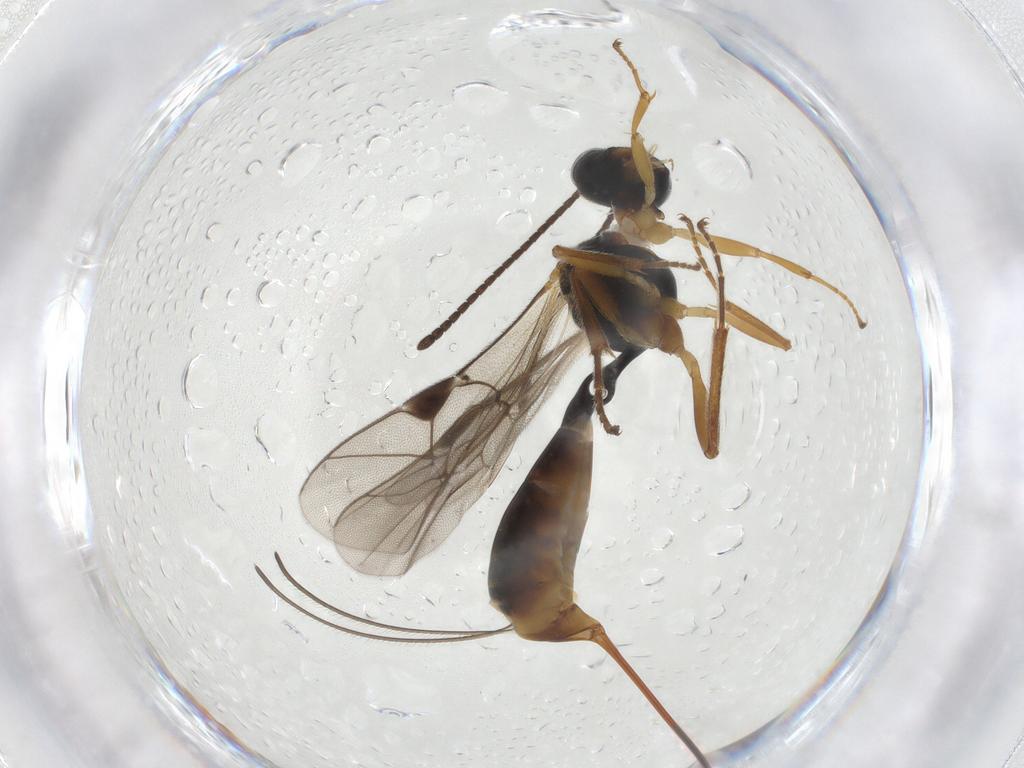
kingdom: Animalia
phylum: Arthropoda
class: Insecta
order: Hymenoptera
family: Ichneumonidae
